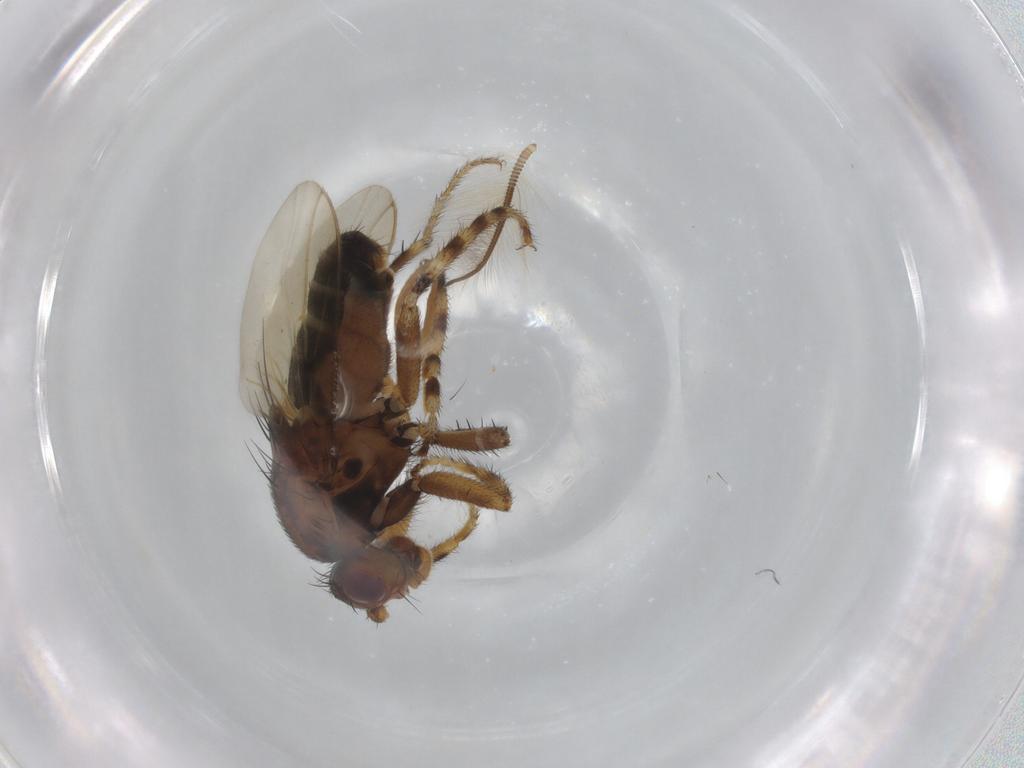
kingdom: Animalia
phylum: Arthropoda
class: Insecta
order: Diptera
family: Sphaeroceridae
